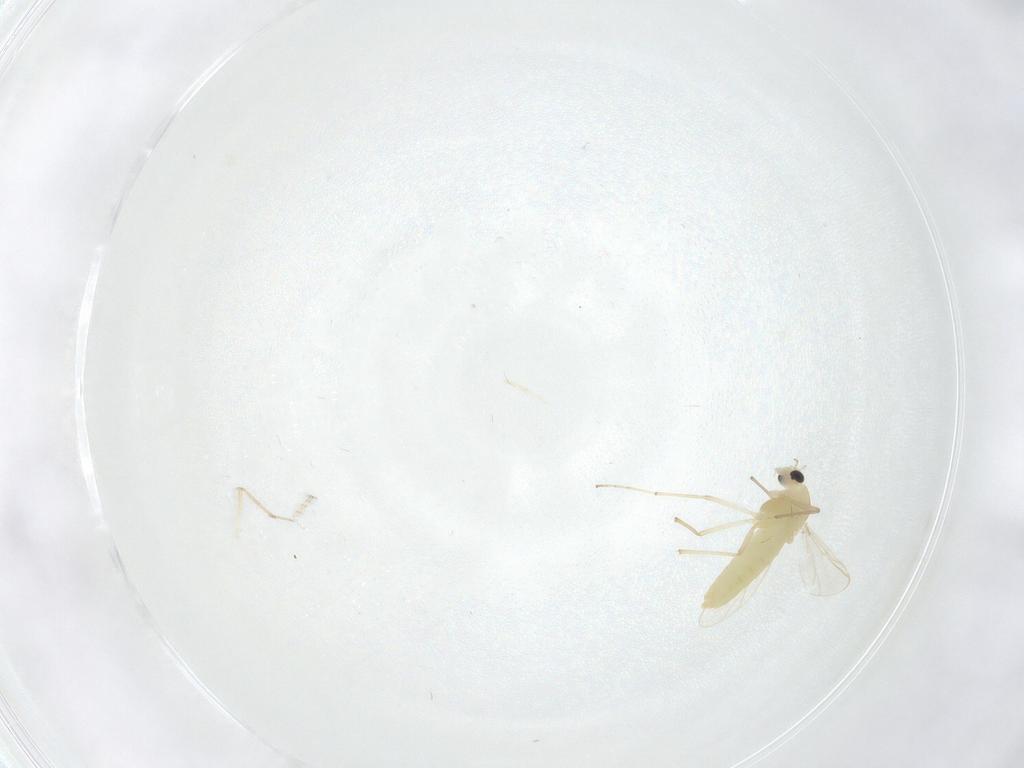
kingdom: Animalia
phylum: Arthropoda
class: Insecta
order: Diptera
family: Chironomidae
